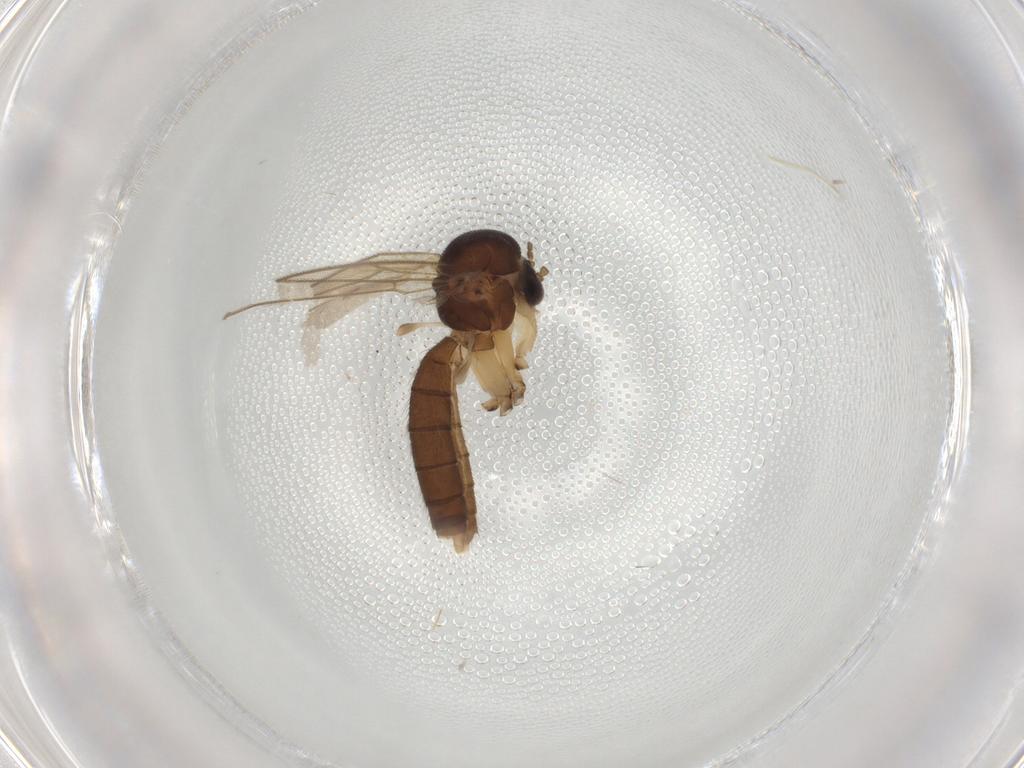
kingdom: Animalia
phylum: Arthropoda
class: Insecta
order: Diptera
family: Mycetophilidae
